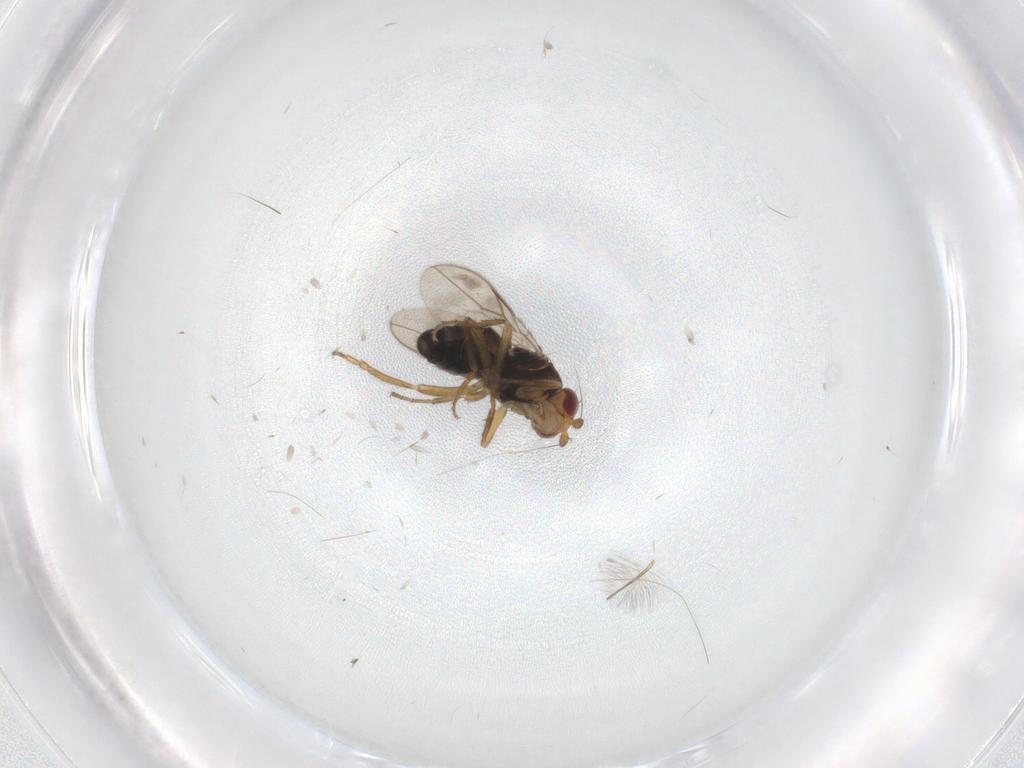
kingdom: Animalia
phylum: Arthropoda
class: Insecta
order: Diptera
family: Sphaeroceridae
